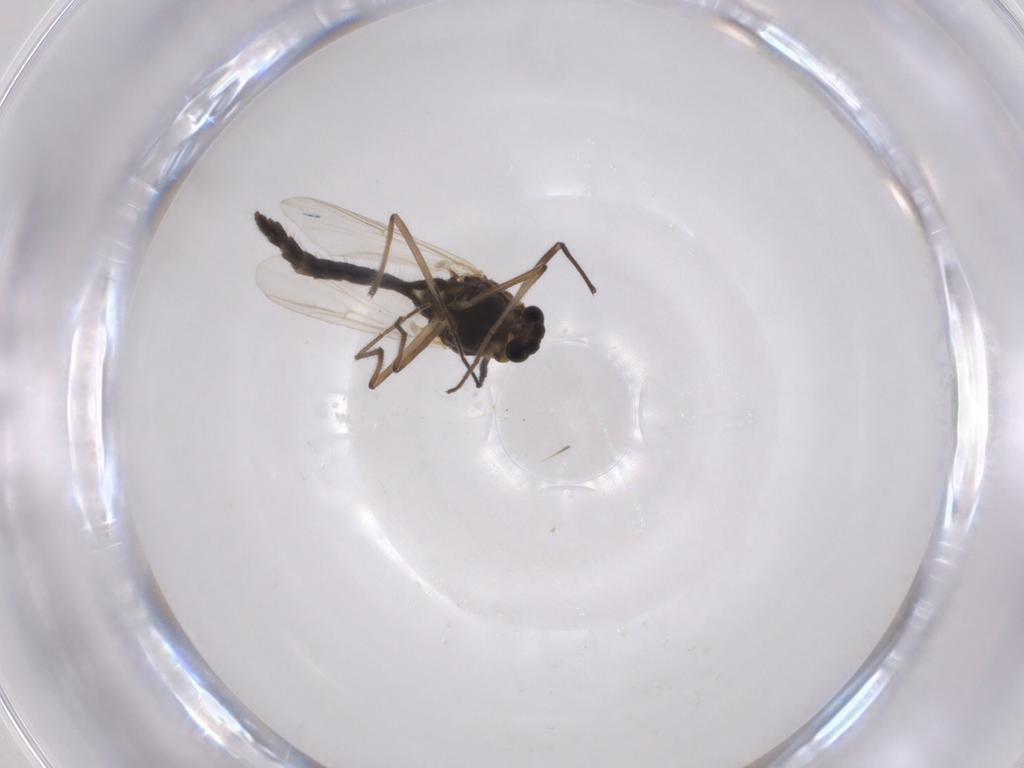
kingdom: Animalia
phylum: Arthropoda
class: Insecta
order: Diptera
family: Chironomidae
